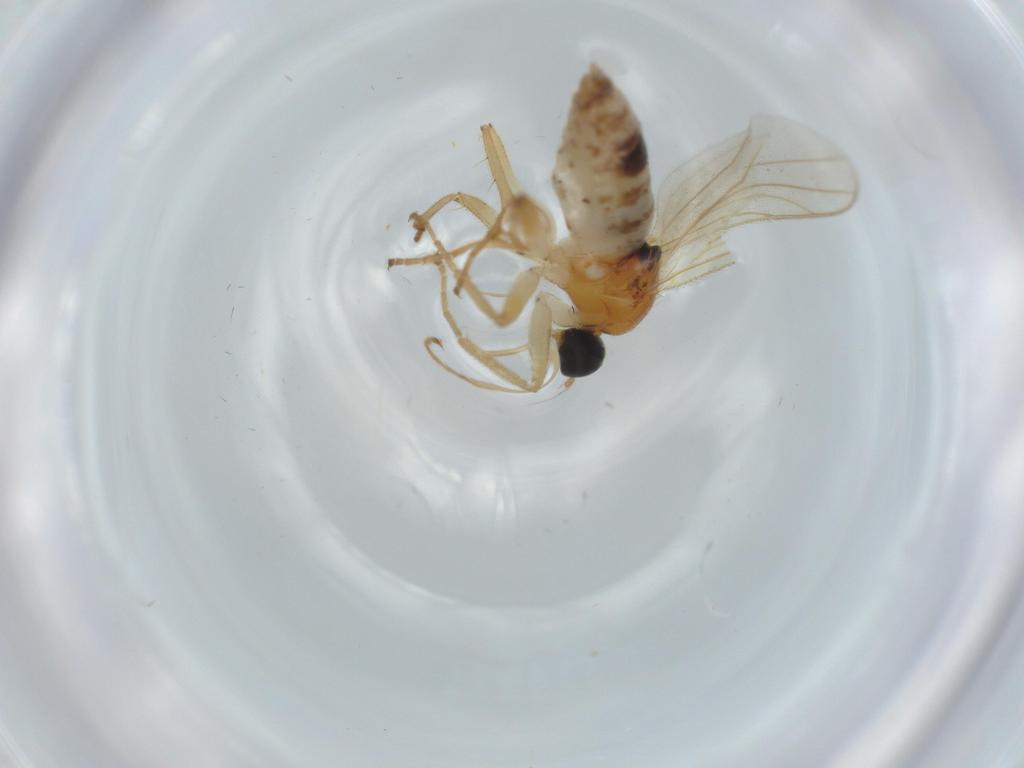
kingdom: Animalia
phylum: Arthropoda
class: Insecta
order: Diptera
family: Hybotidae
